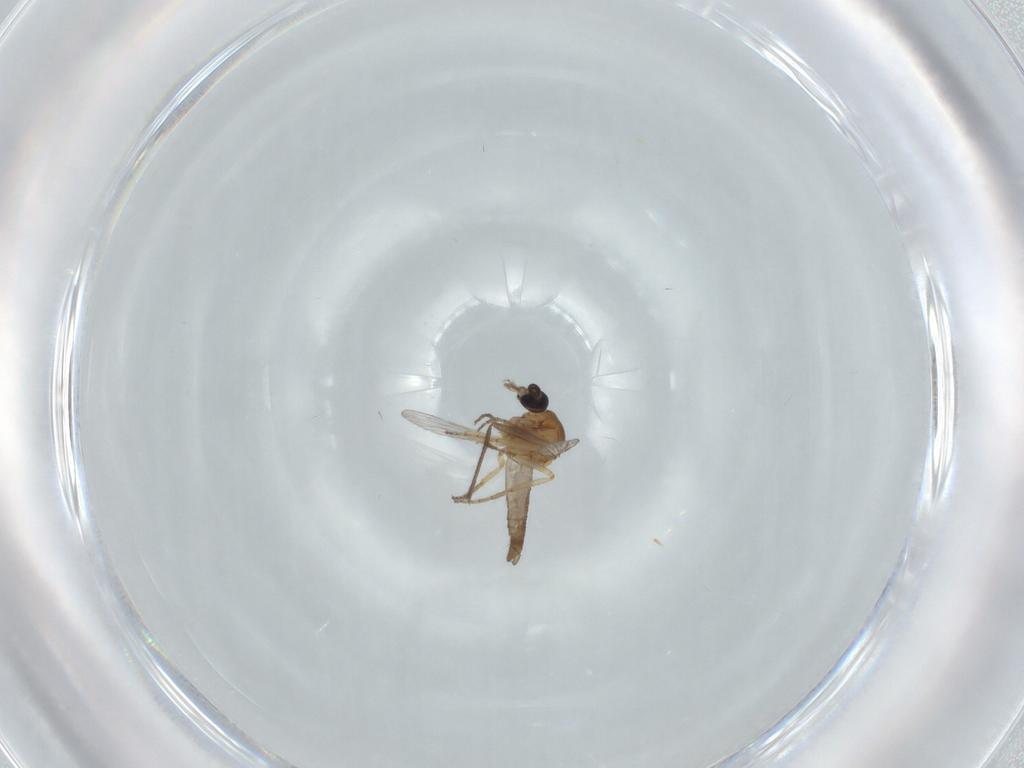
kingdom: Animalia
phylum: Arthropoda
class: Insecta
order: Diptera
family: Ceratopogonidae
